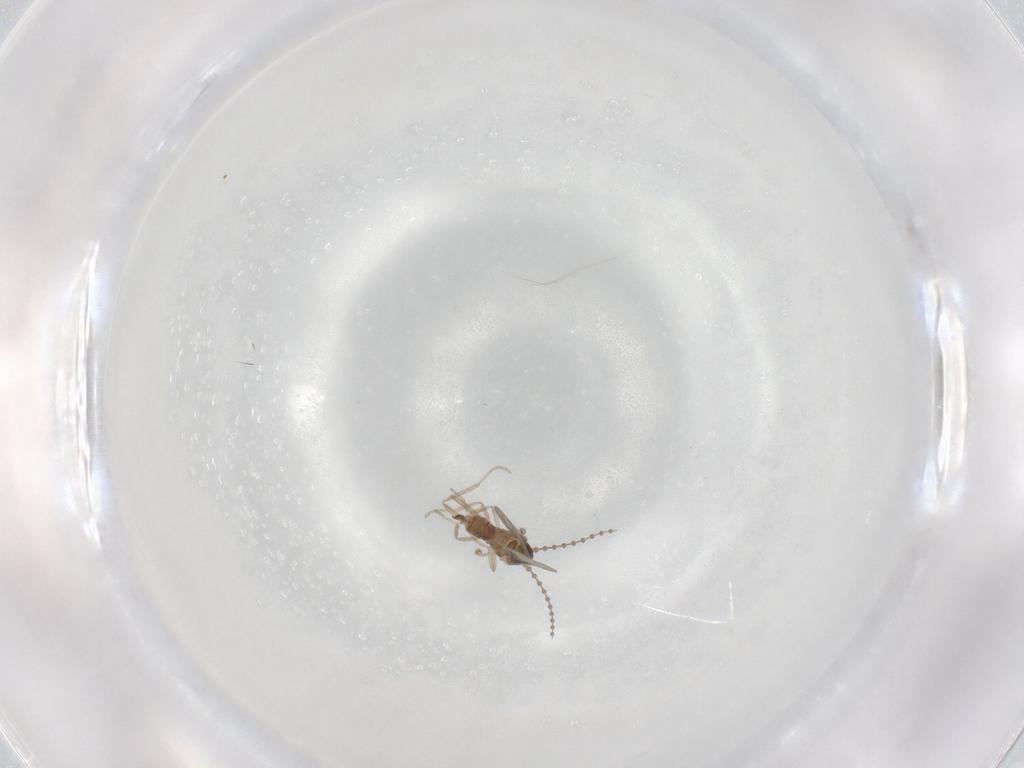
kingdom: Animalia
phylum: Arthropoda
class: Insecta
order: Diptera
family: Cecidomyiidae
